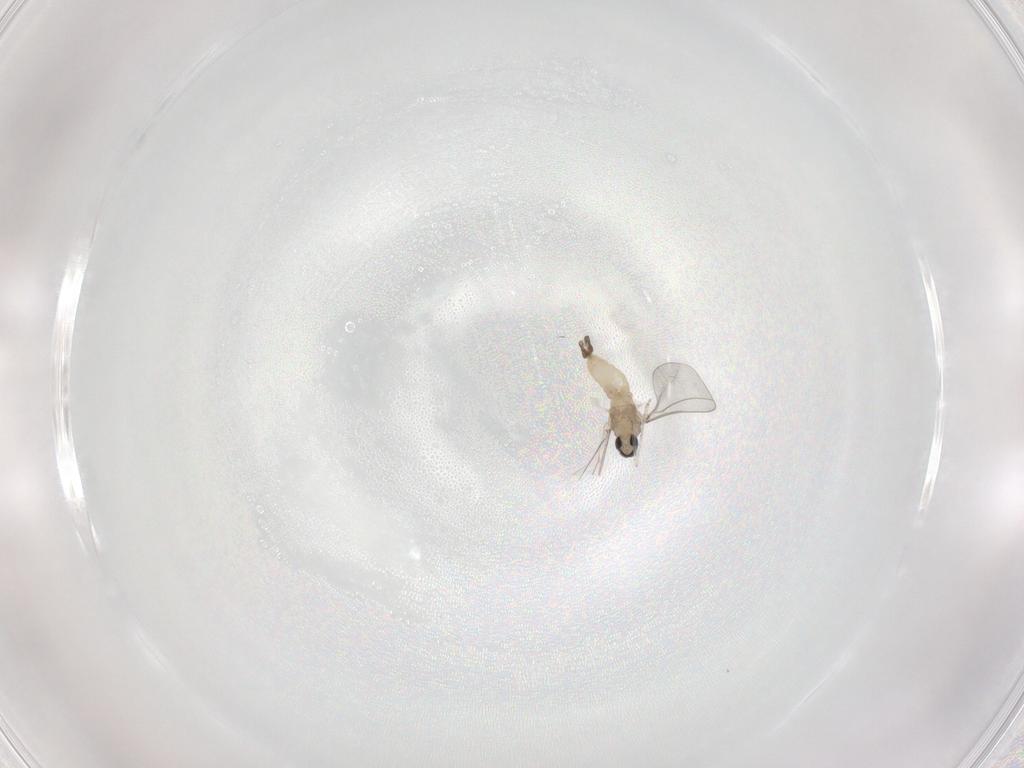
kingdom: Animalia
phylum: Arthropoda
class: Insecta
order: Diptera
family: Cecidomyiidae
